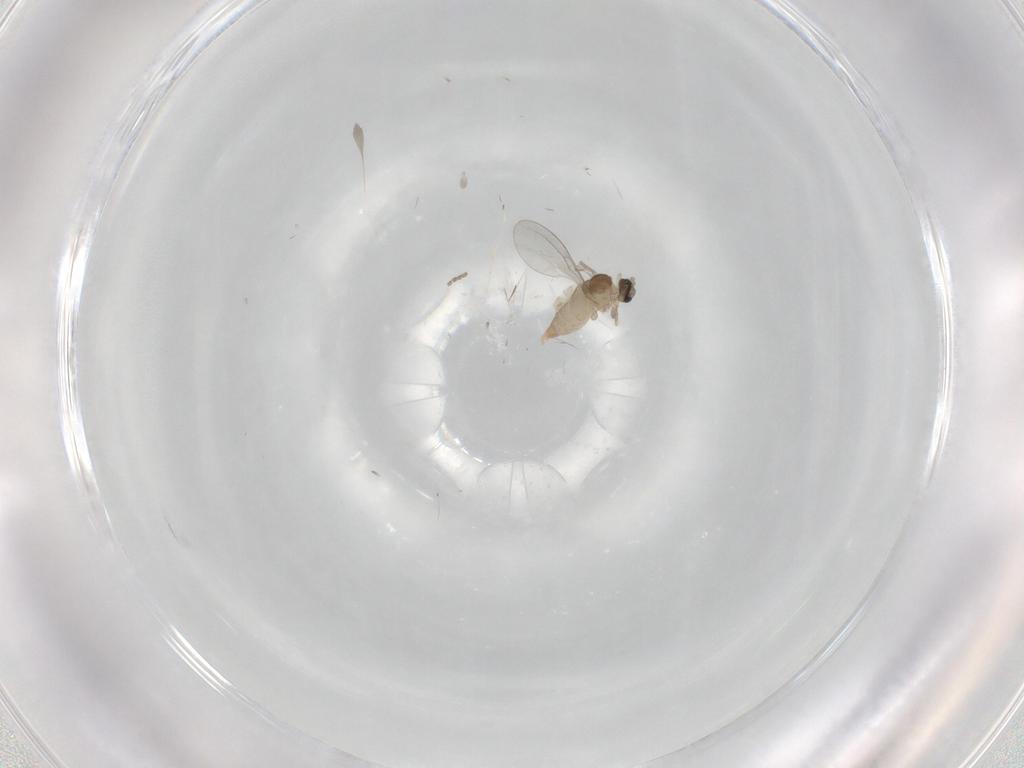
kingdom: Animalia
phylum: Arthropoda
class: Insecta
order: Diptera
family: Cecidomyiidae
